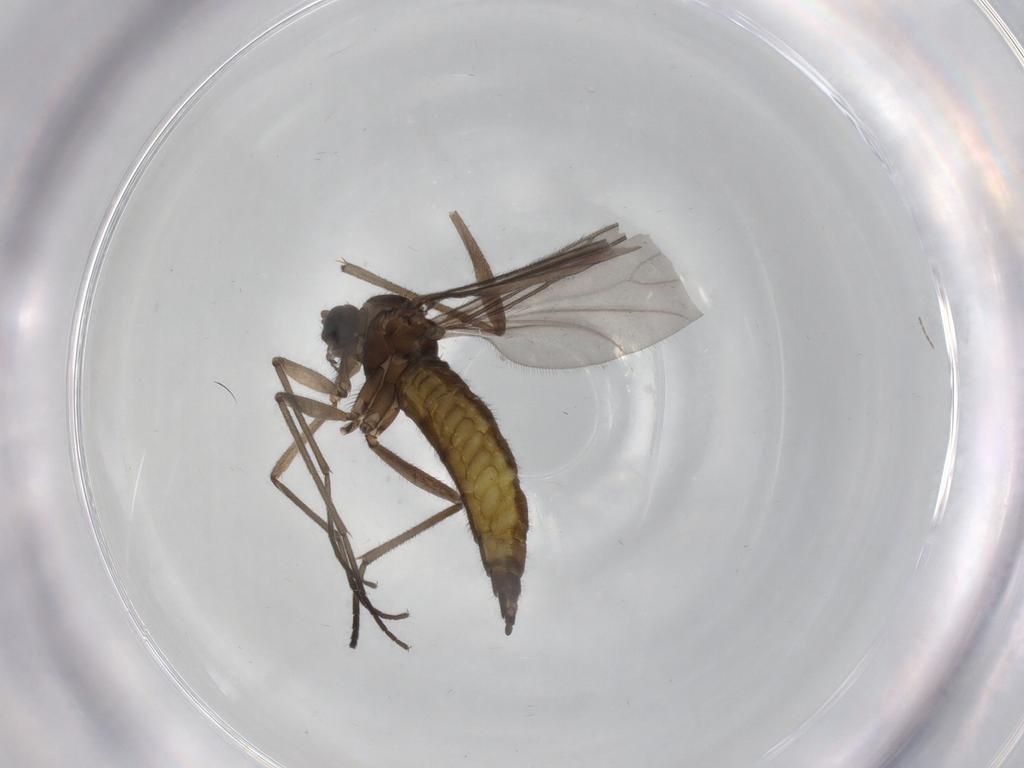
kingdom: Animalia
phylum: Arthropoda
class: Insecta
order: Diptera
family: Sciaridae
